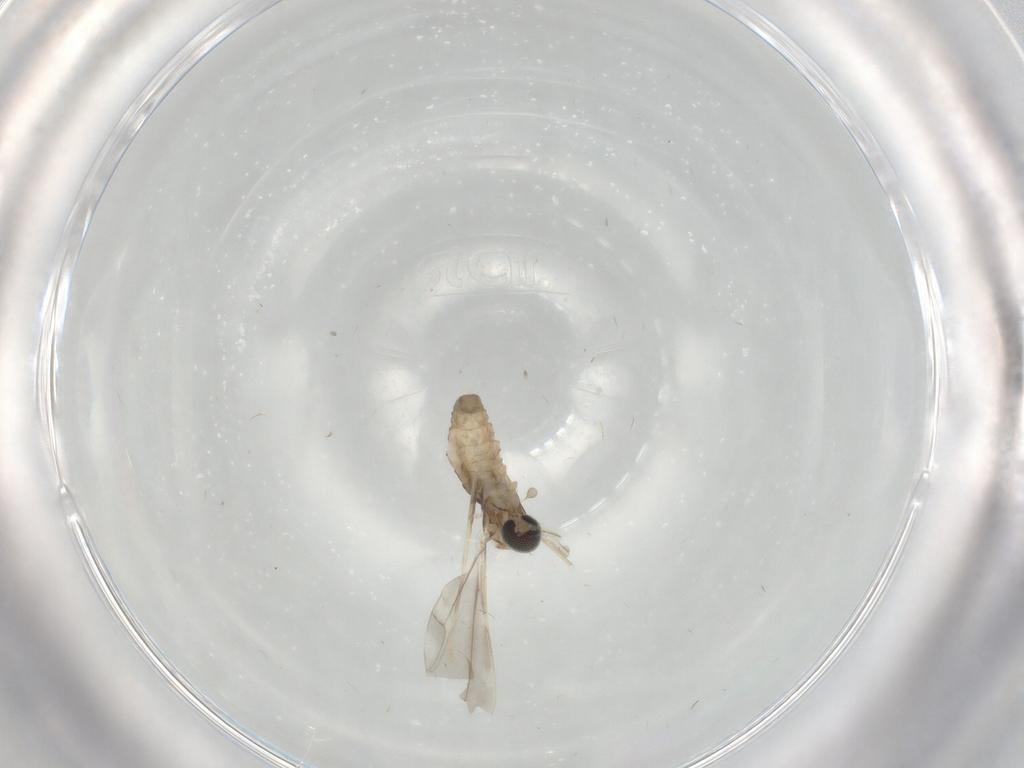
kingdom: Animalia
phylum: Arthropoda
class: Insecta
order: Diptera
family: Cecidomyiidae
